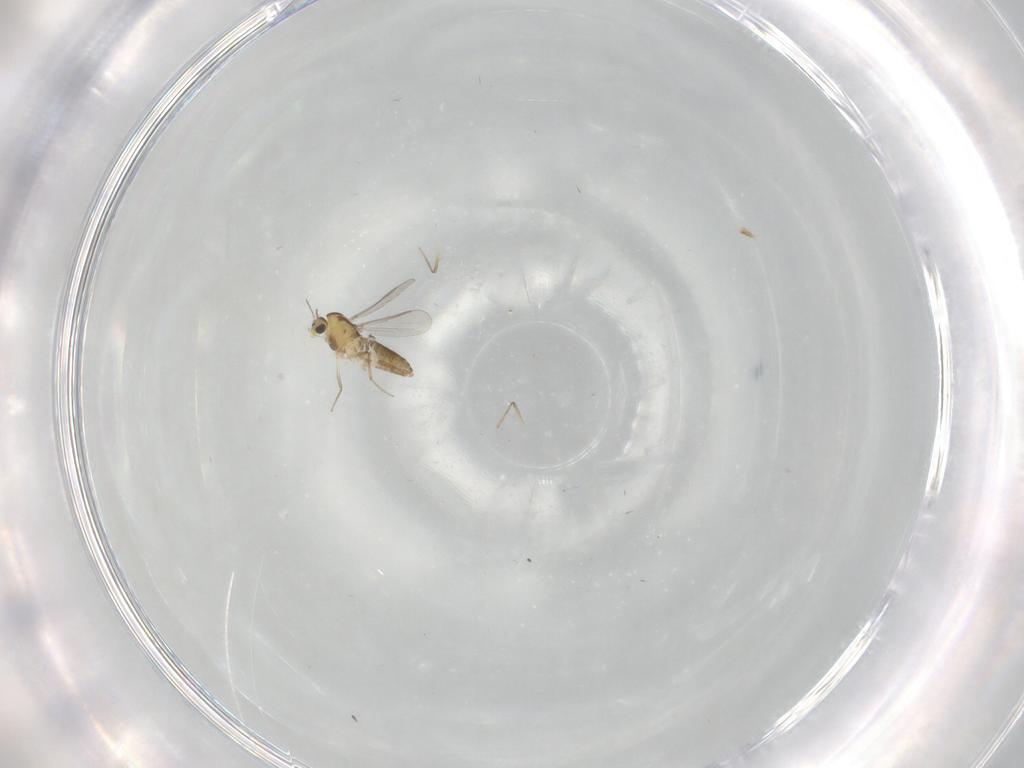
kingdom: Animalia
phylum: Arthropoda
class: Insecta
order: Diptera
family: Chironomidae
